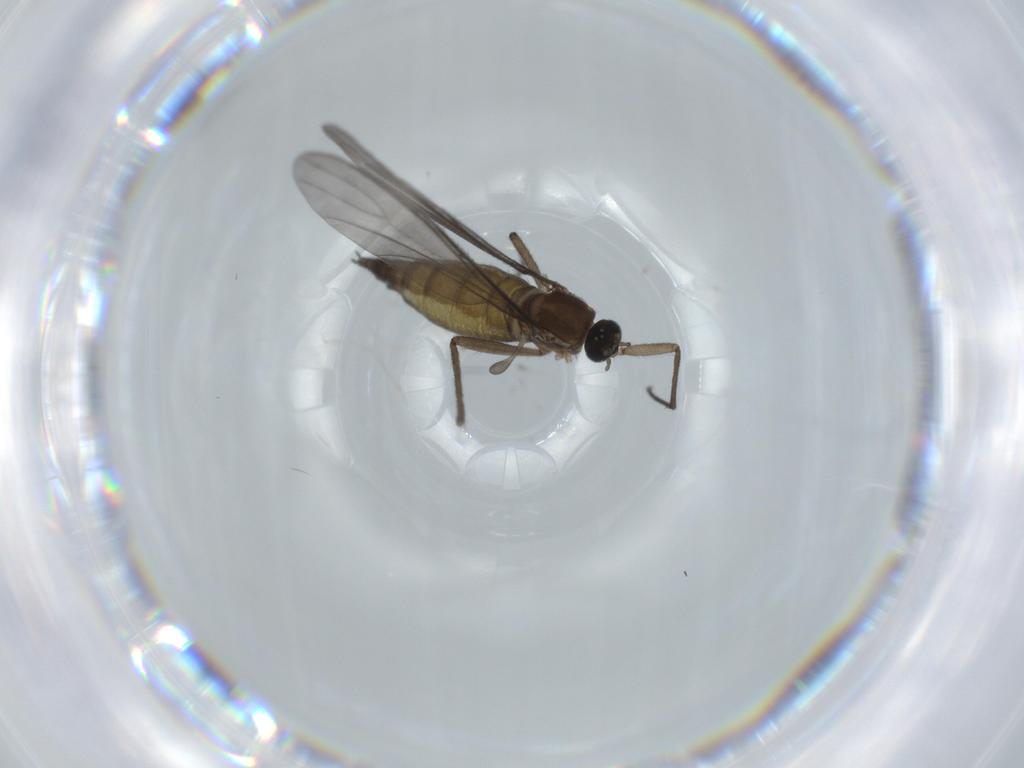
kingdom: Animalia
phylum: Arthropoda
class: Insecta
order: Diptera
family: Sciaridae
